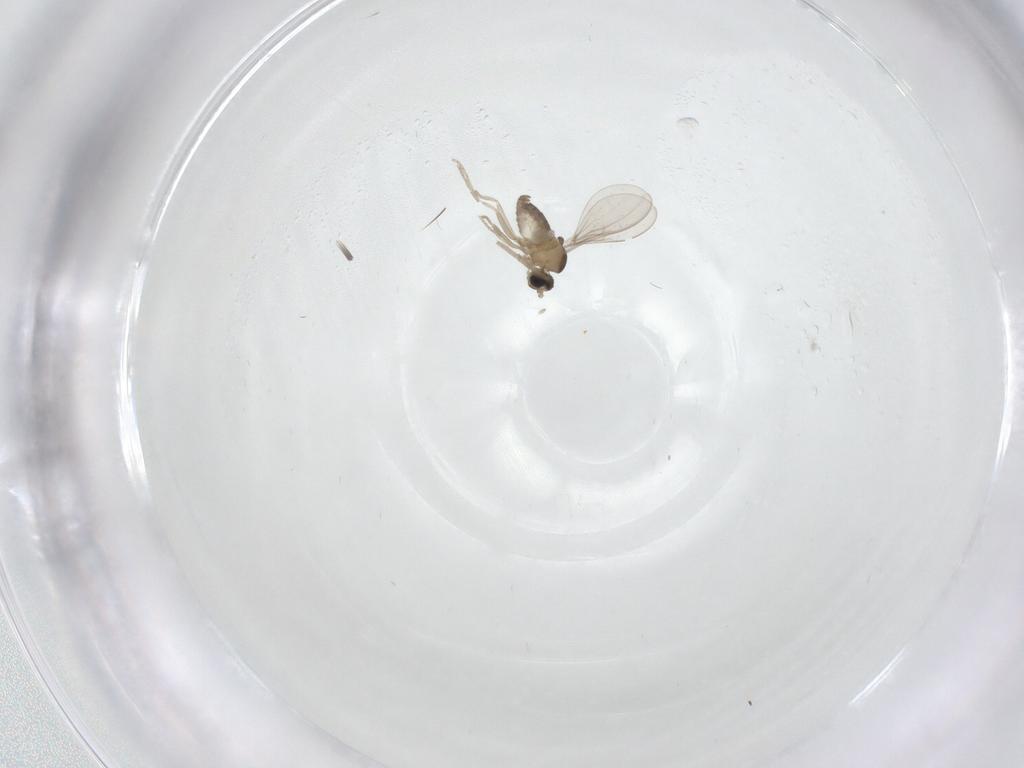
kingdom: Animalia
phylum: Arthropoda
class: Insecta
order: Diptera
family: Cecidomyiidae
